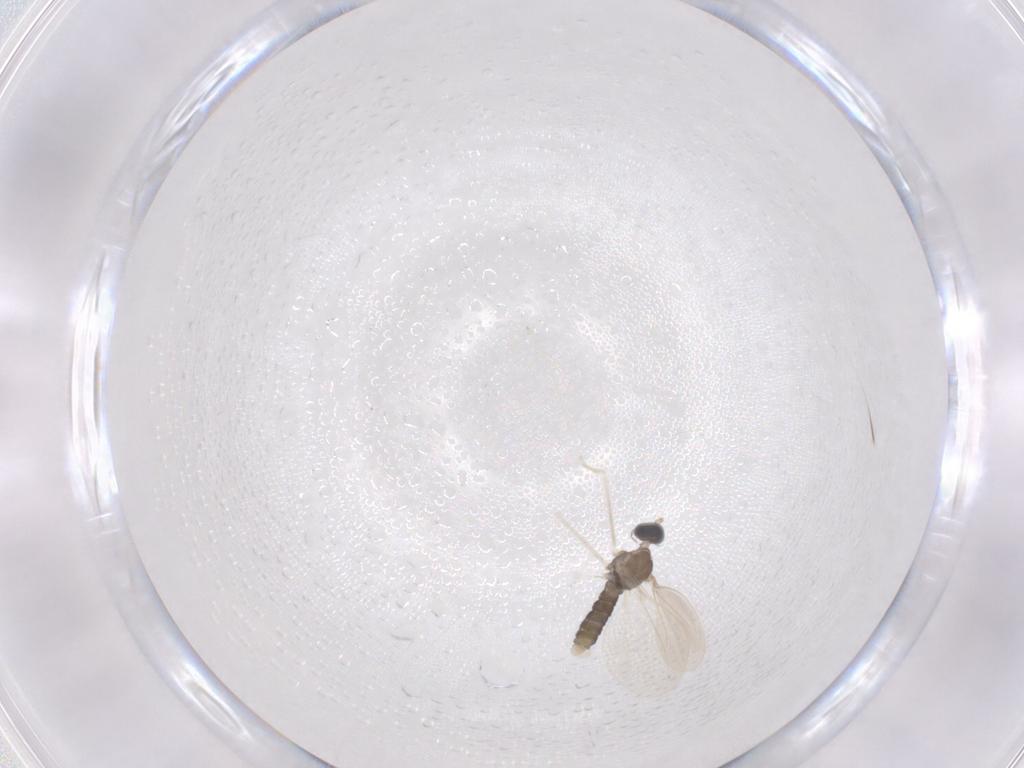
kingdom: Animalia
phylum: Arthropoda
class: Insecta
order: Diptera
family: Cecidomyiidae
